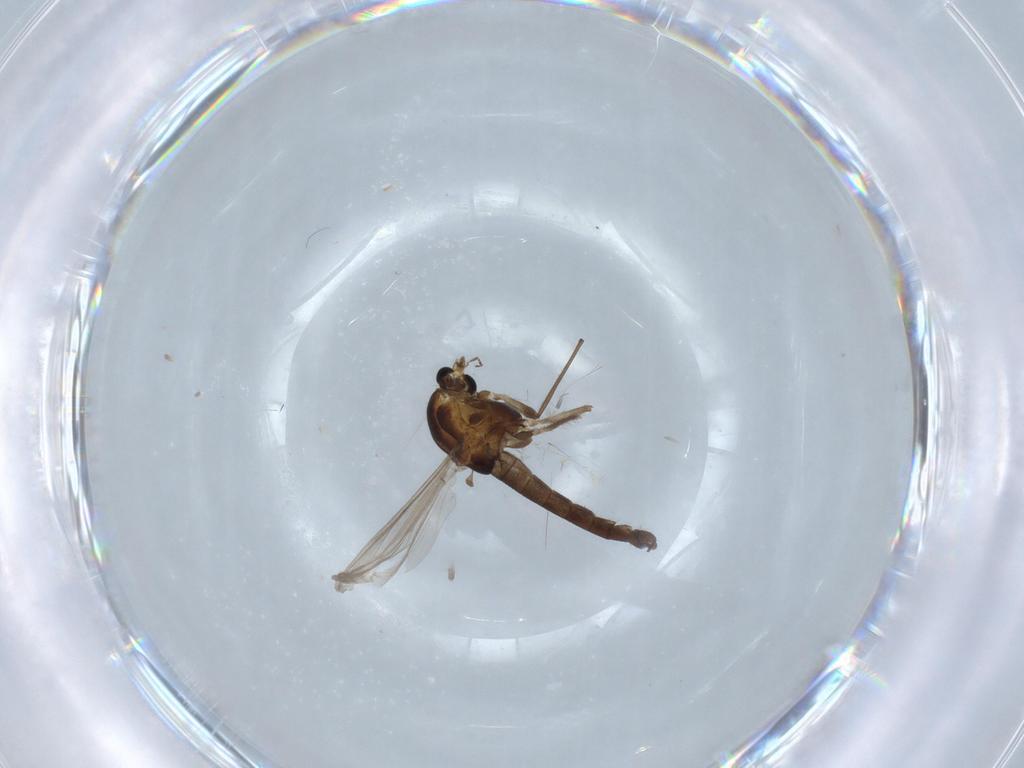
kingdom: Animalia
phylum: Arthropoda
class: Insecta
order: Diptera
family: Chironomidae
